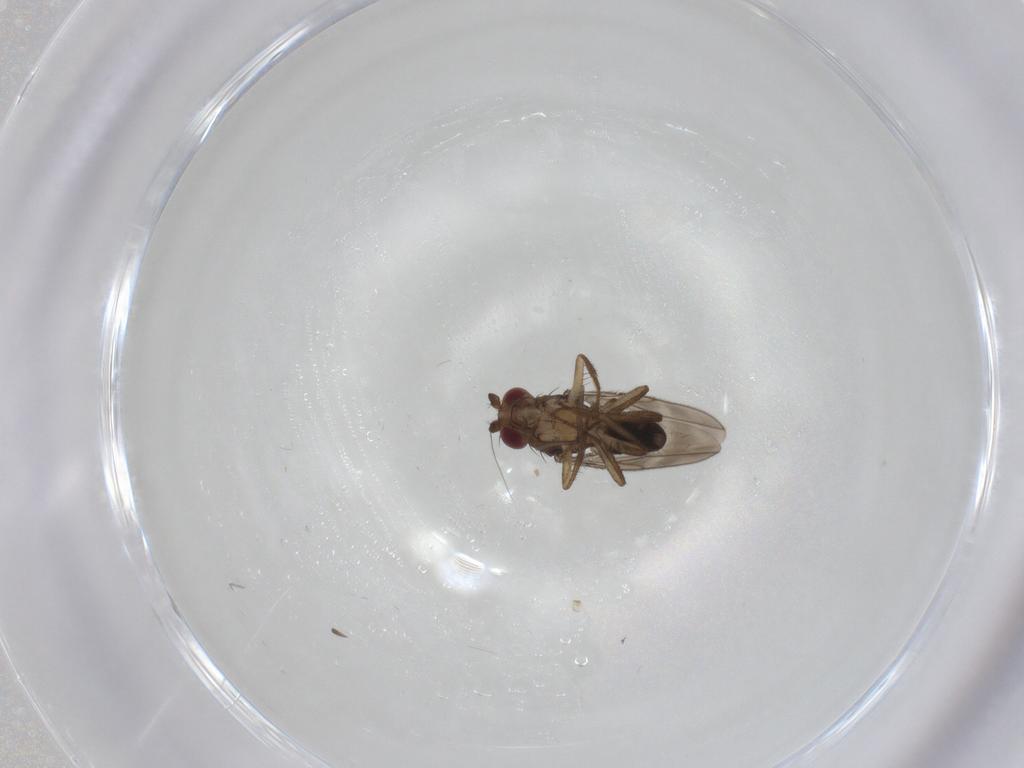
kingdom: Animalia
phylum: Arthropoda
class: Insecta
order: Diptera
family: Sphaeroceridae
